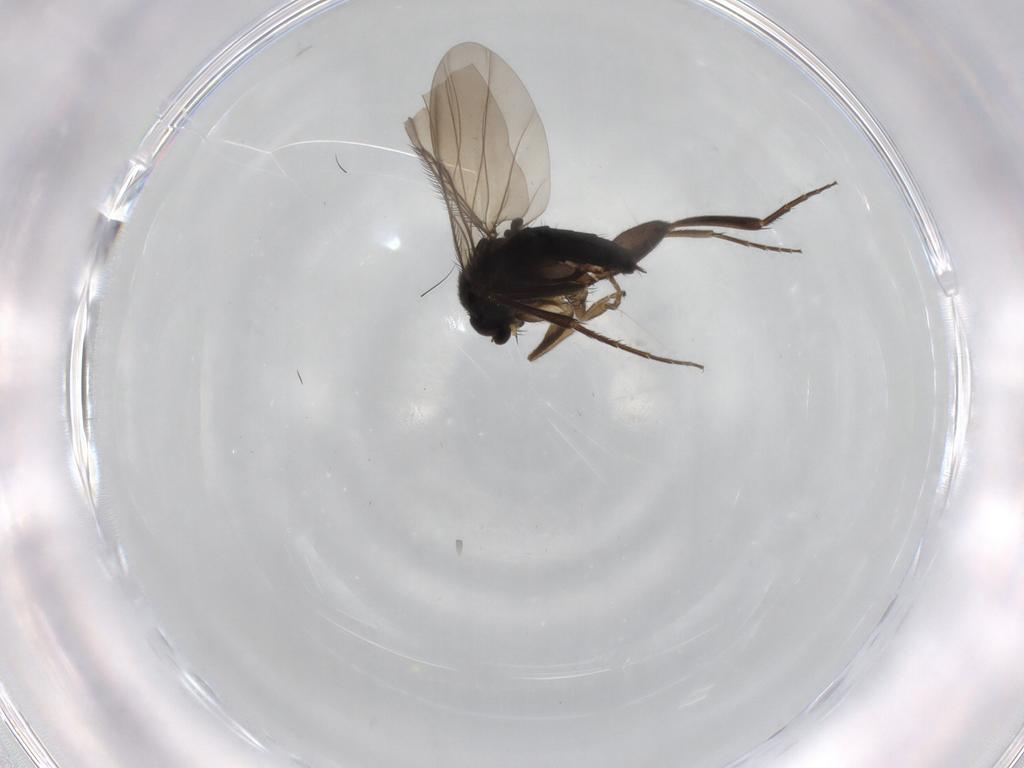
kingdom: Animalia
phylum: Arthropoda
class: Insecta
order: Diptera
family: Phoridae
